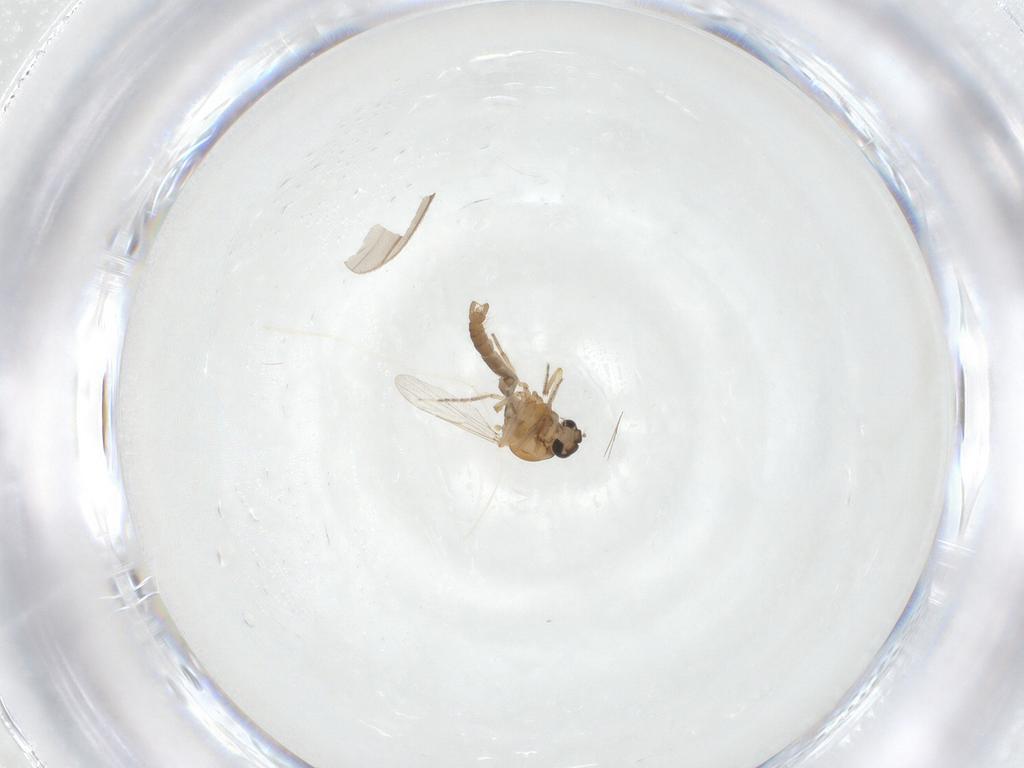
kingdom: Animalia
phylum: Arthropoda
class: Insecta
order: Diptera
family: Ceratopogonidae
